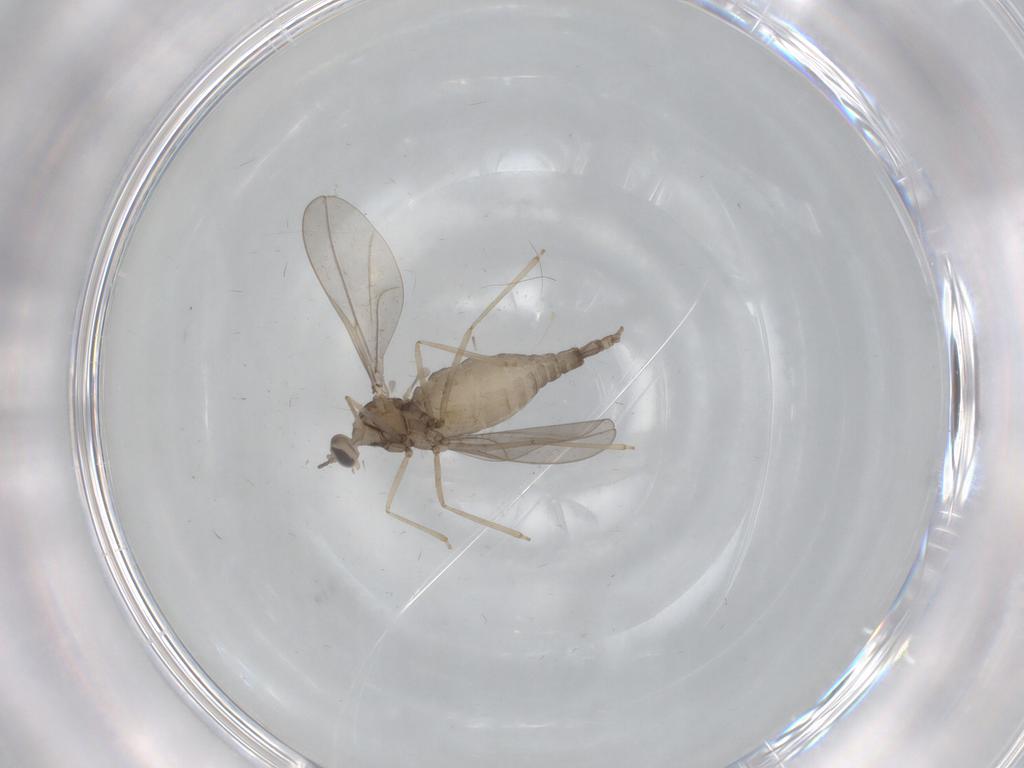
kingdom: Animalia
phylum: Arthropoda
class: Insecta
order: Diptera
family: Cecidomyiidae
